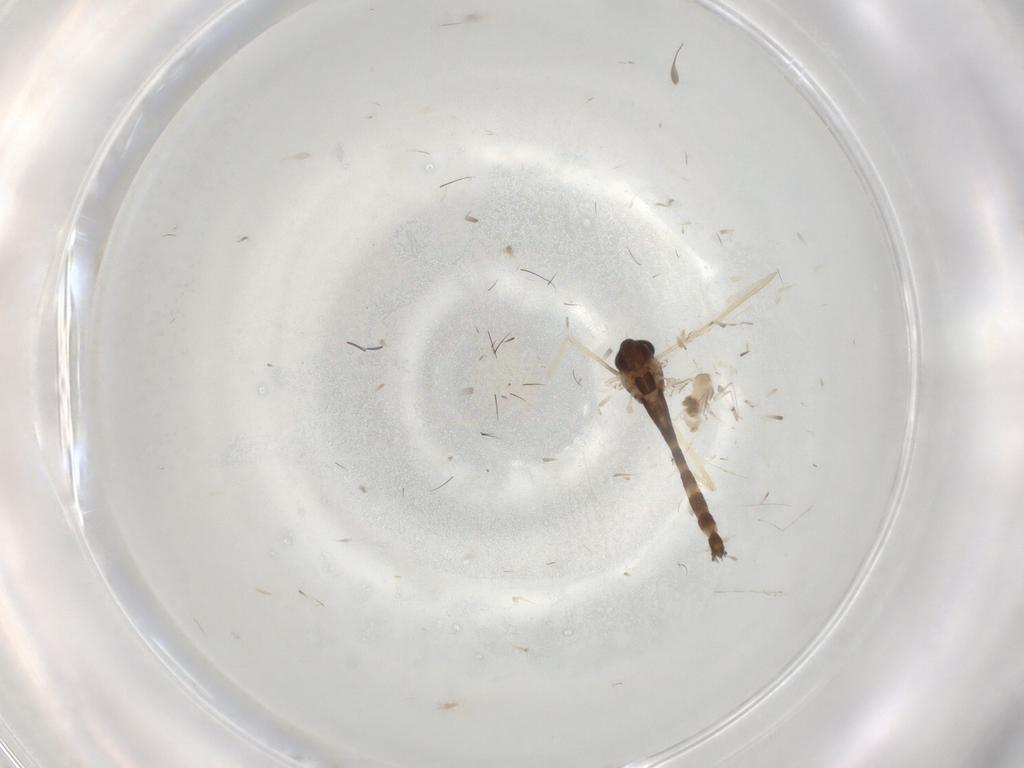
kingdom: Animalia
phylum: Arthropoda
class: Insecta
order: Diptera
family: Chironomidae
